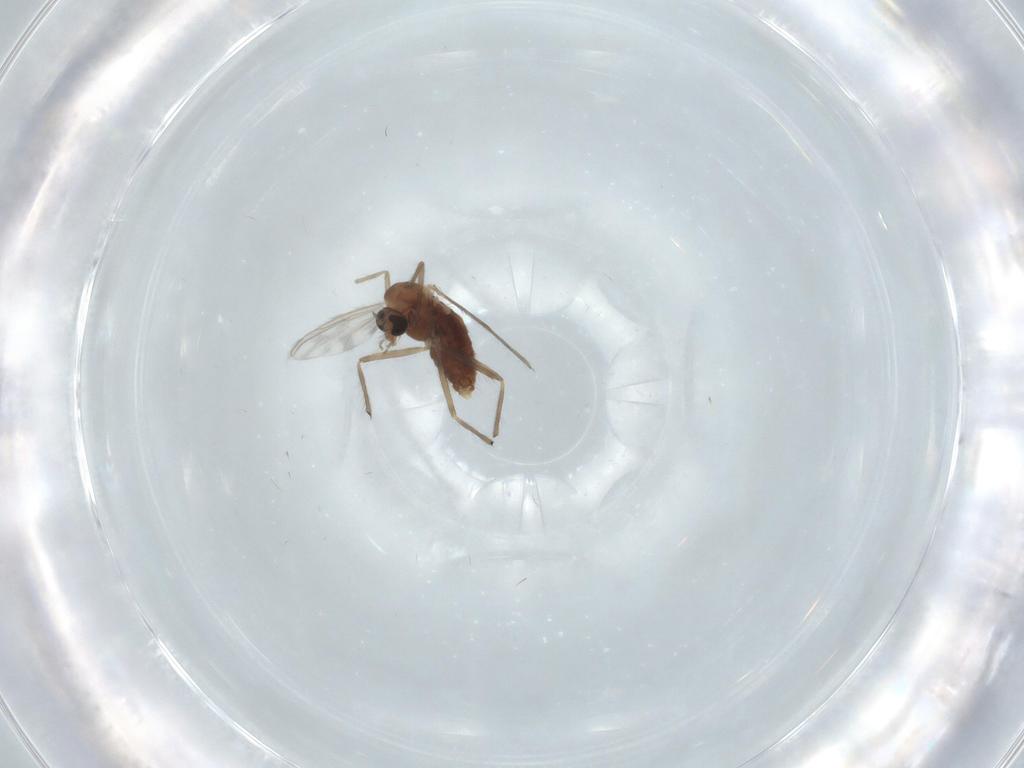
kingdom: Animalia
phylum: Arthropoda
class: Insecta
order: Diptera
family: Chironomidae
